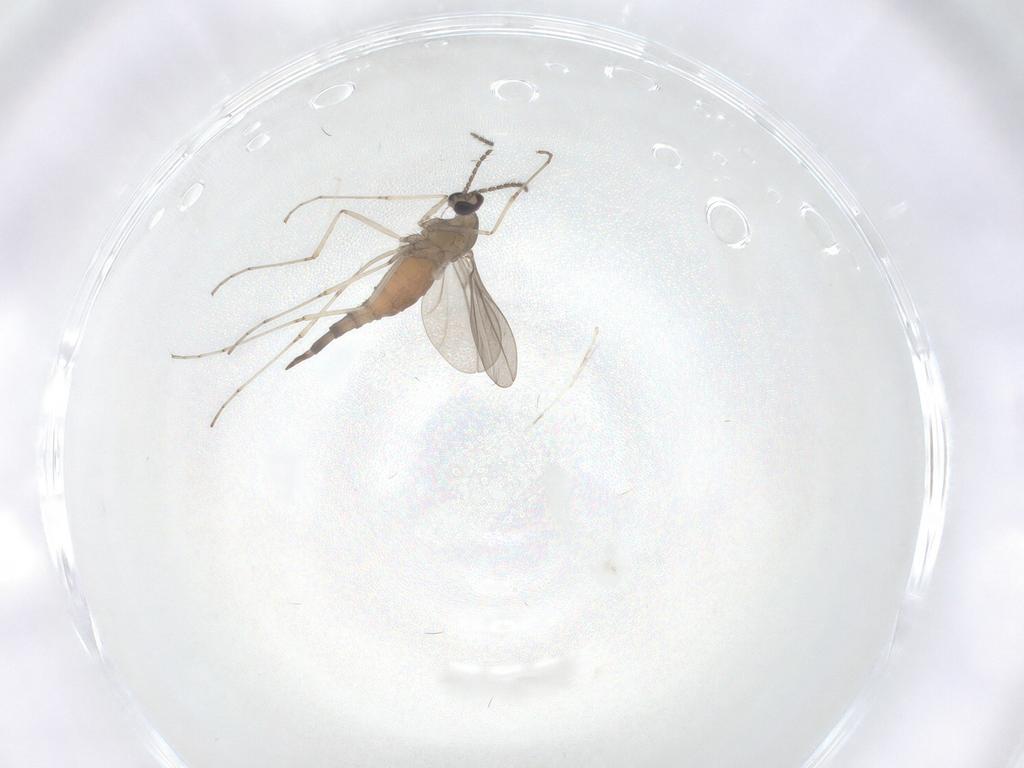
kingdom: Animalia
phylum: Arthropoda
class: Insecta
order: Diptera
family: Cecidomyiidae
